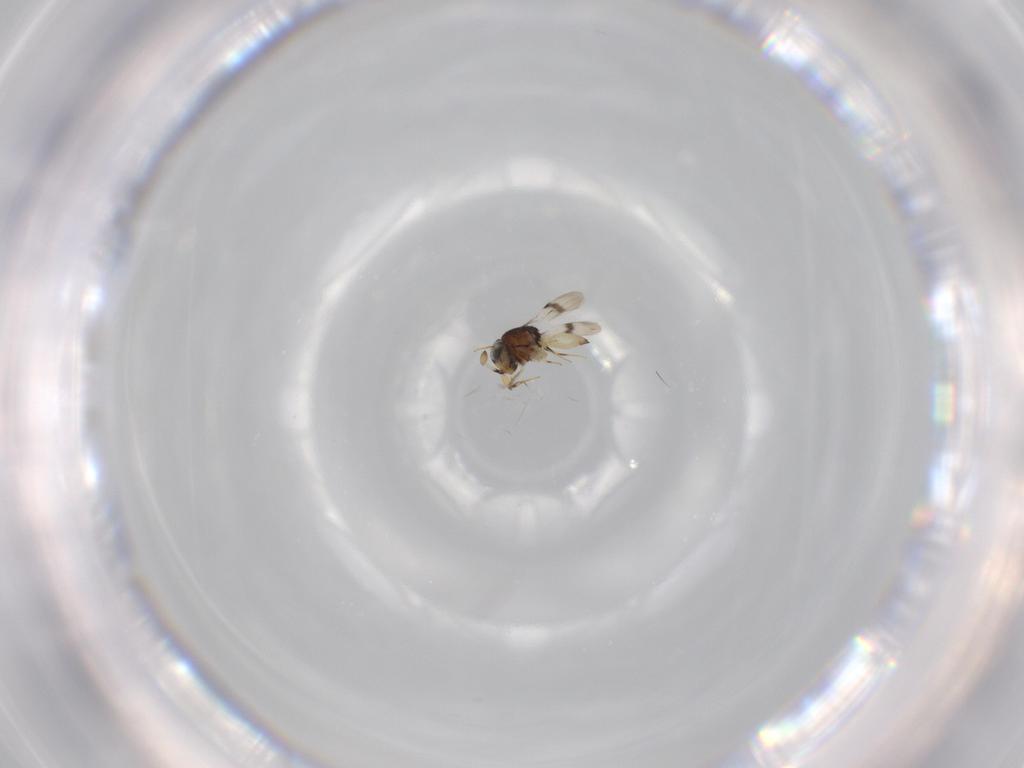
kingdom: Animalia
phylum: Arthropoda
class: Insecta
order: Hymenoptera
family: Scelionidae
